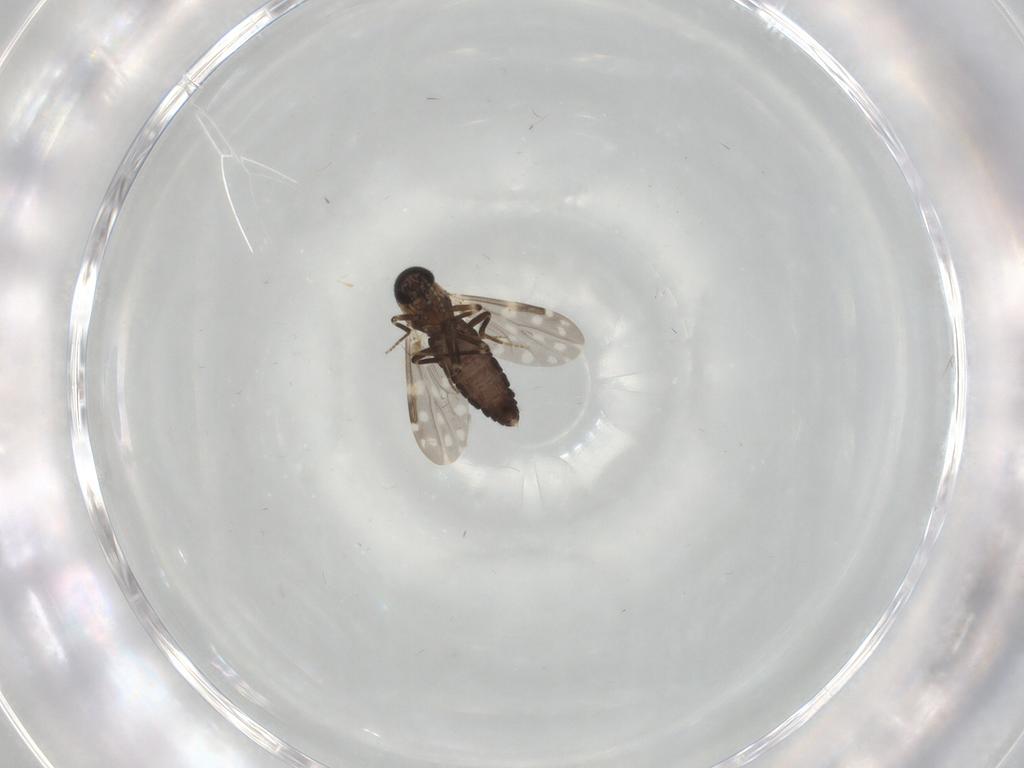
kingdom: Animalia
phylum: Arthropoda
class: Insecta
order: Diptera
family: Ceratopogonidae
